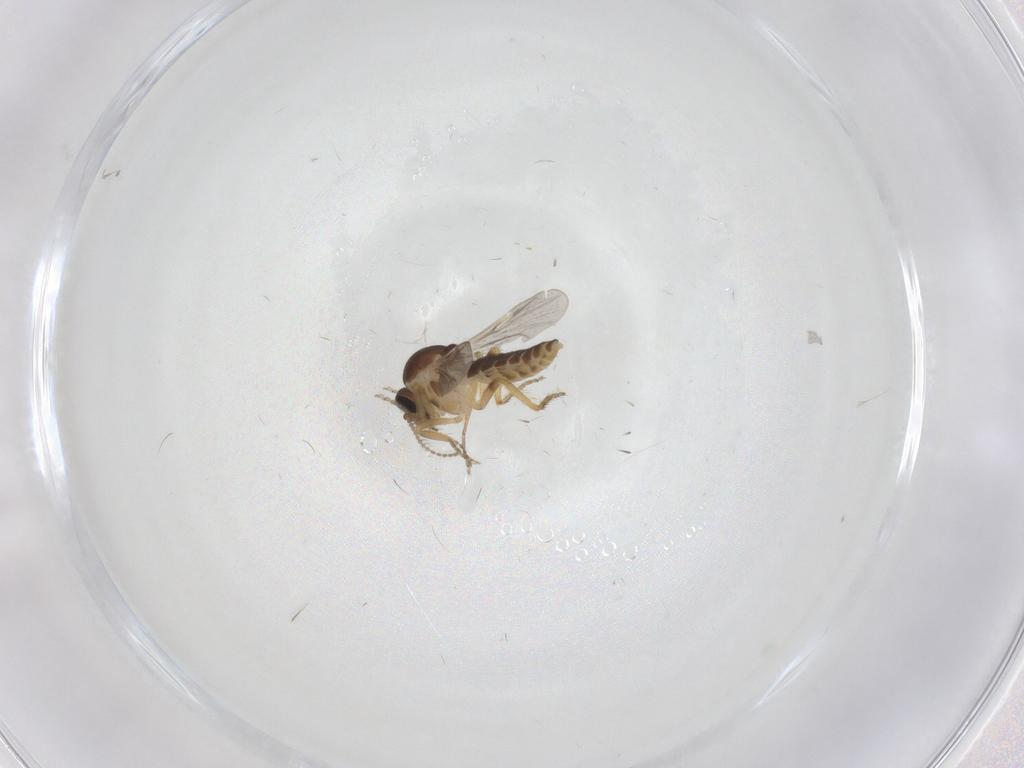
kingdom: Animalia
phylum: Arthropoda
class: Insecta
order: Diptera
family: Ceratopogonidae
